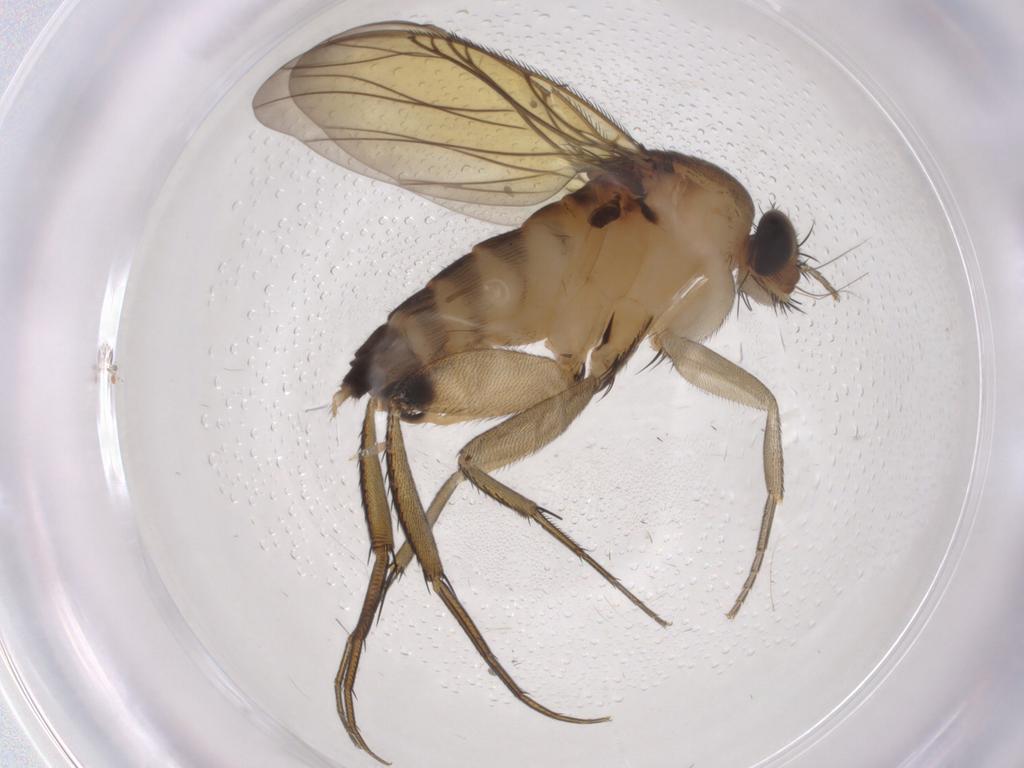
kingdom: Animalia
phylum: Arthropoda
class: Insecta
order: Diptera
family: Phoridae
